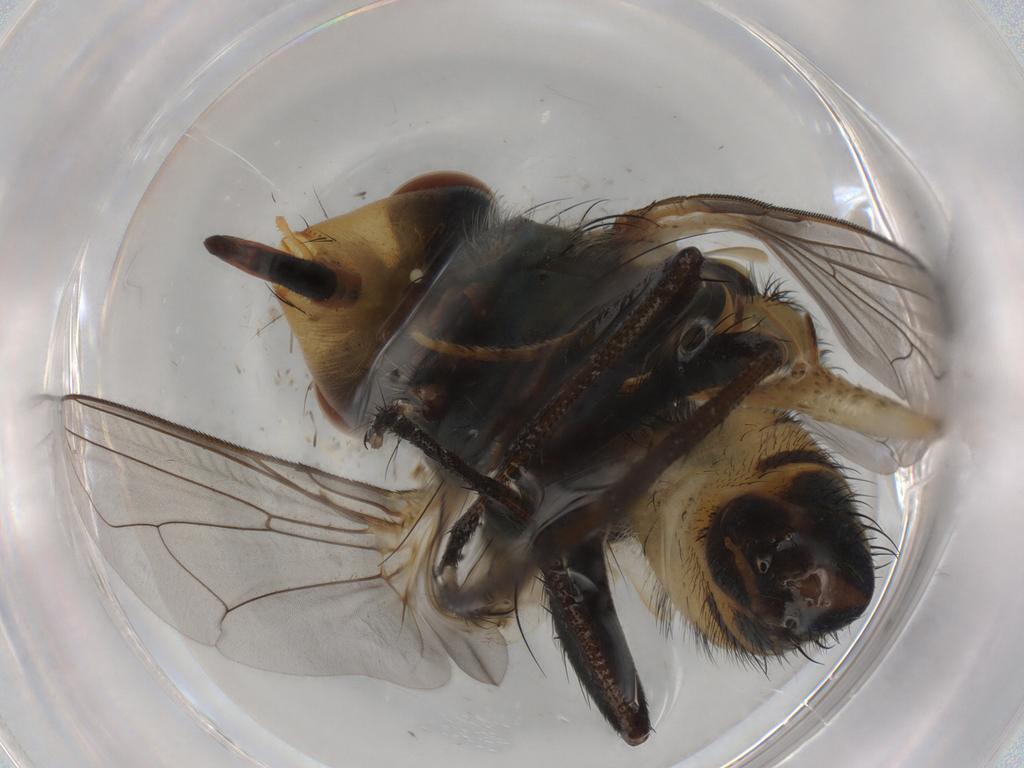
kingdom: Animalia
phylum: Arthropoda
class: Insecta
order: Diptera
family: Calliphoridae
